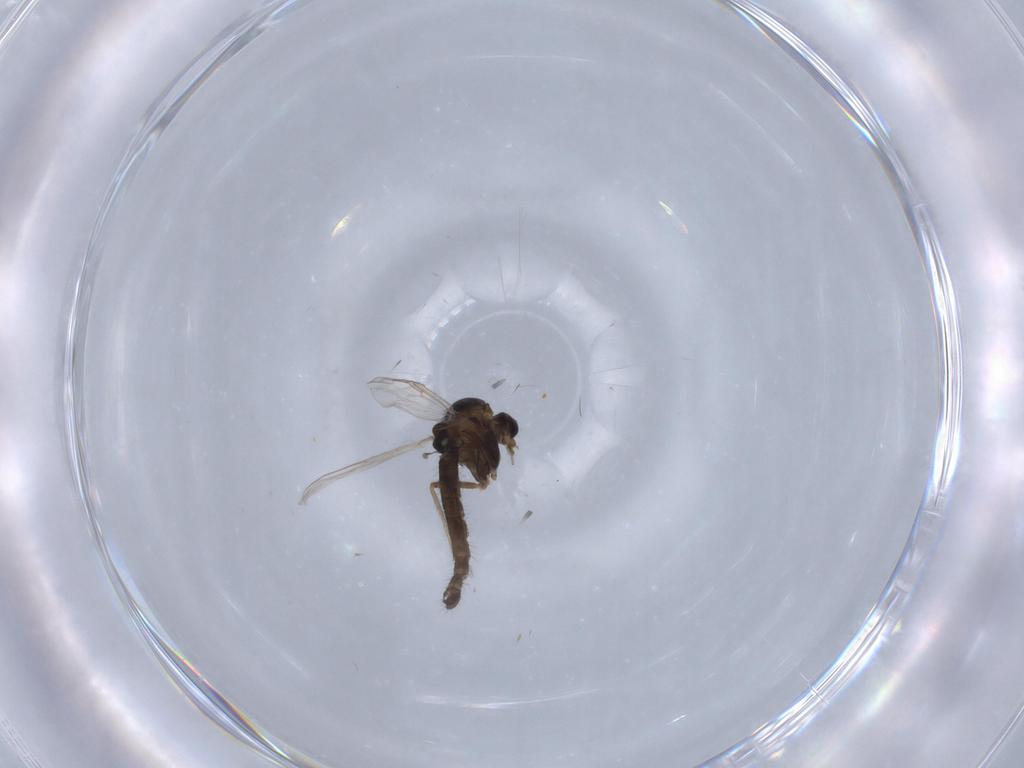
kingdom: Animalia
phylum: Arthropoda
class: Insecta
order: Diptera
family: Chironomidae
